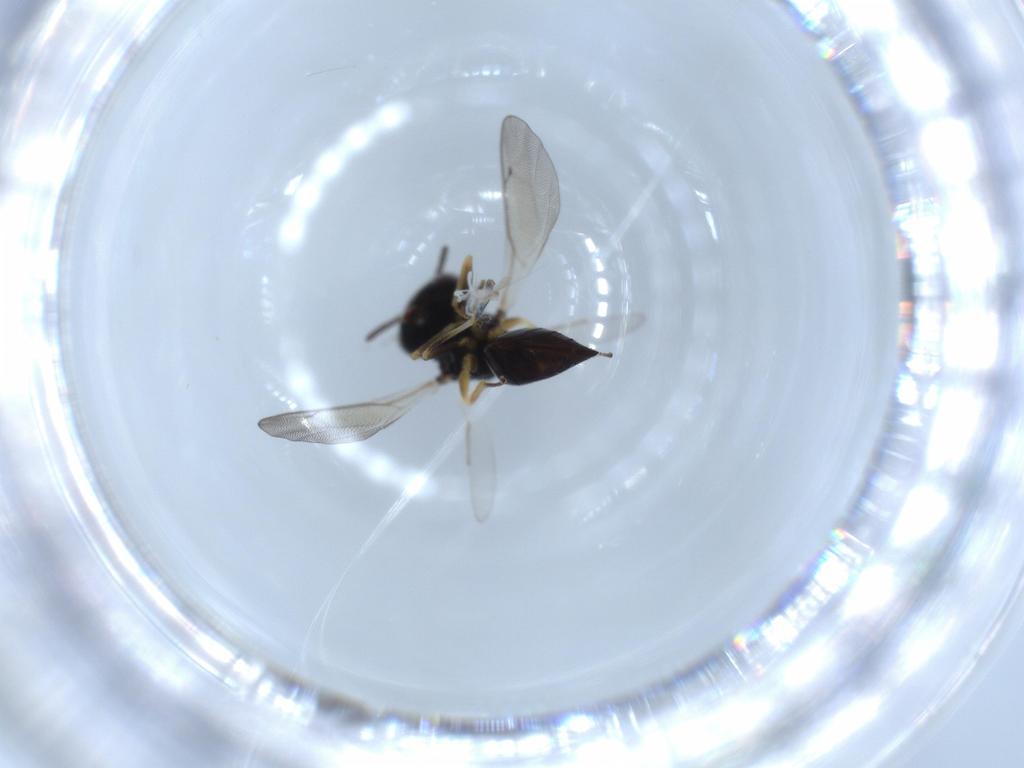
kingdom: Animalia
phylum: Arthropoda
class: Insecta
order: Hymenoptera
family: Pteromalidae
